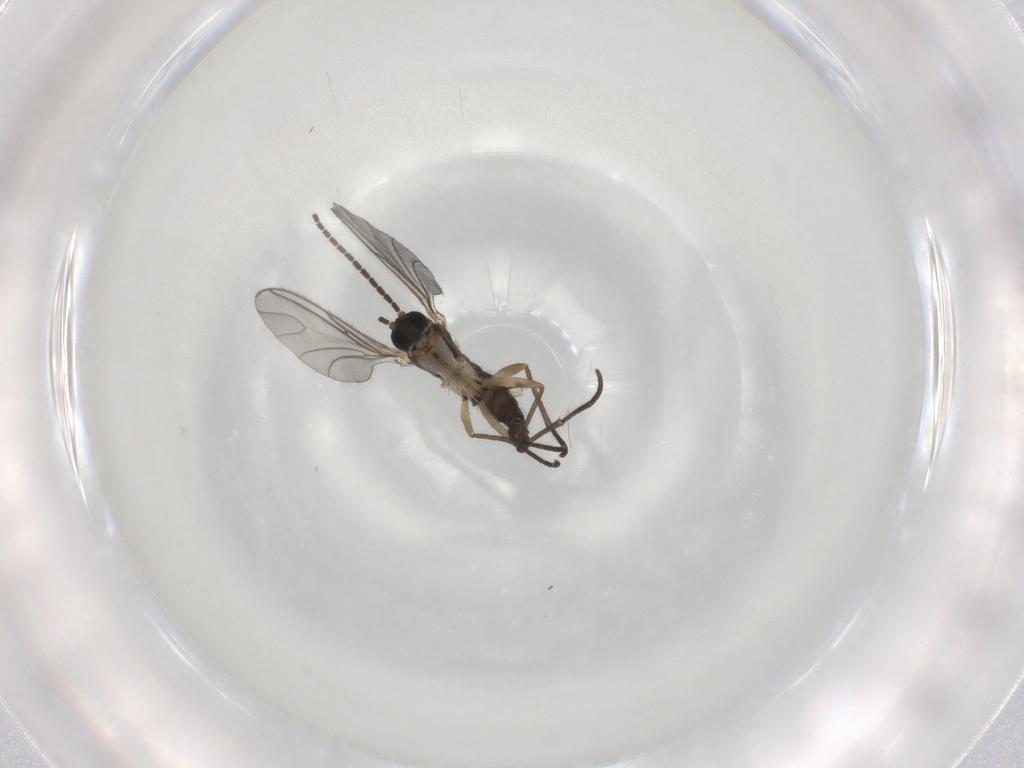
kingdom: Animalia
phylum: Arthropoda
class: Insecta
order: Diptera
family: Sciaridae
